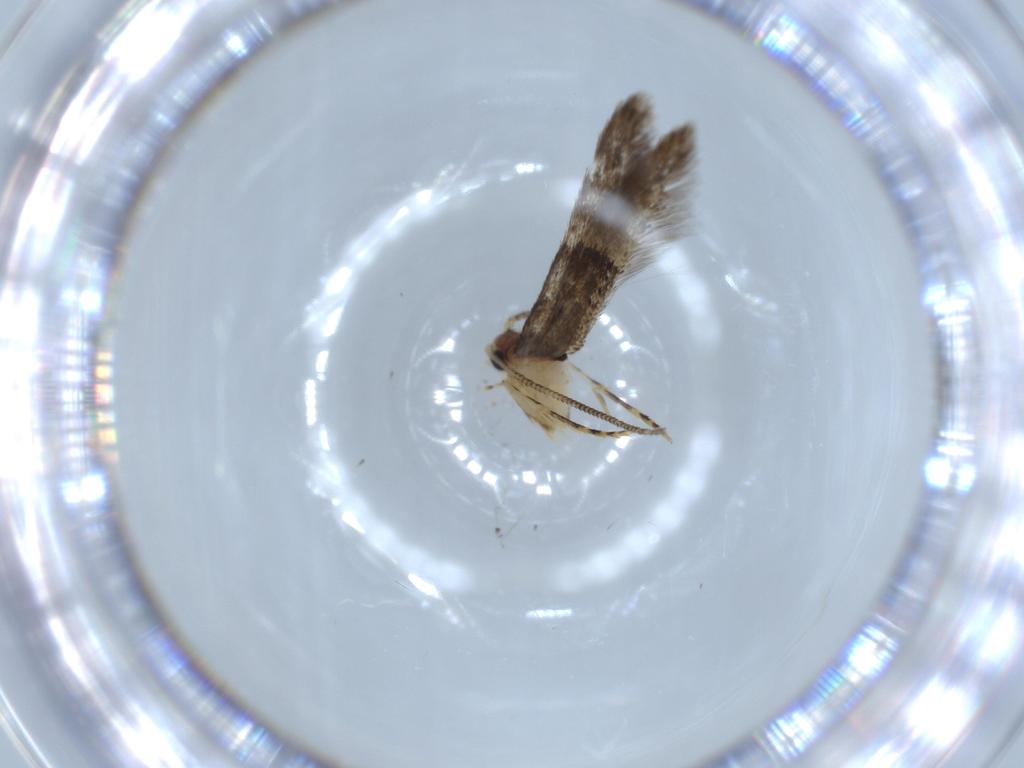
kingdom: Animalia
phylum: Arthropoda
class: Insecta
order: Lepidoptera
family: Tineidae
